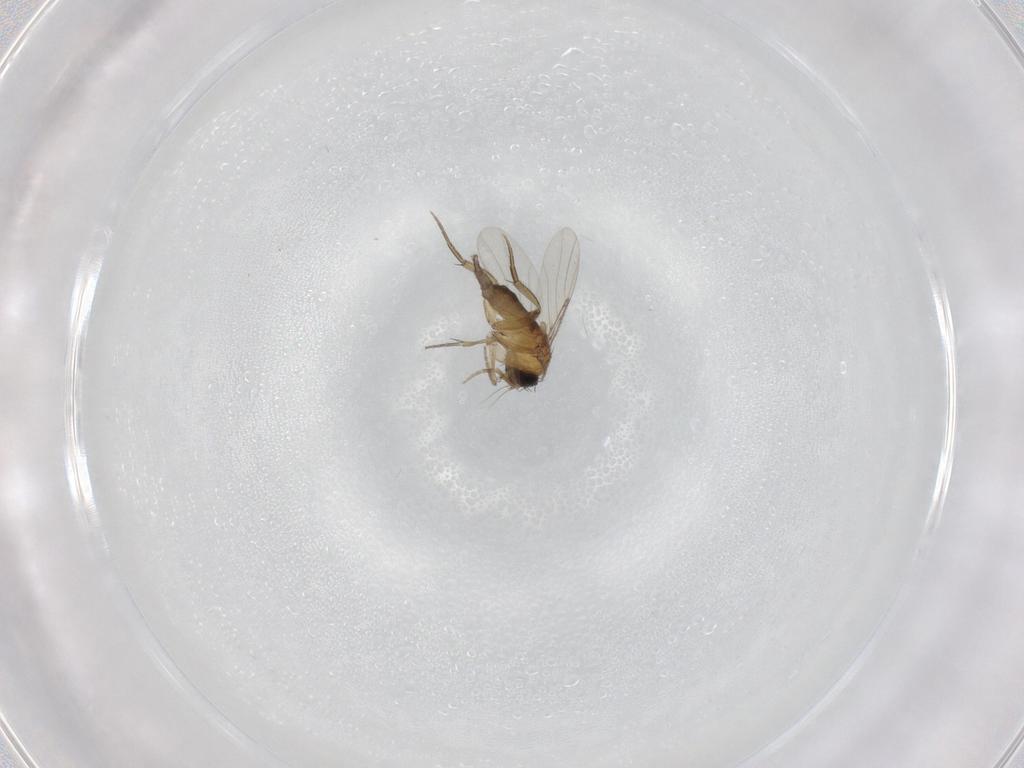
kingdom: Animalia
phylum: Arthropoda
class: Insecta
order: Diptera
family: Phoridae
